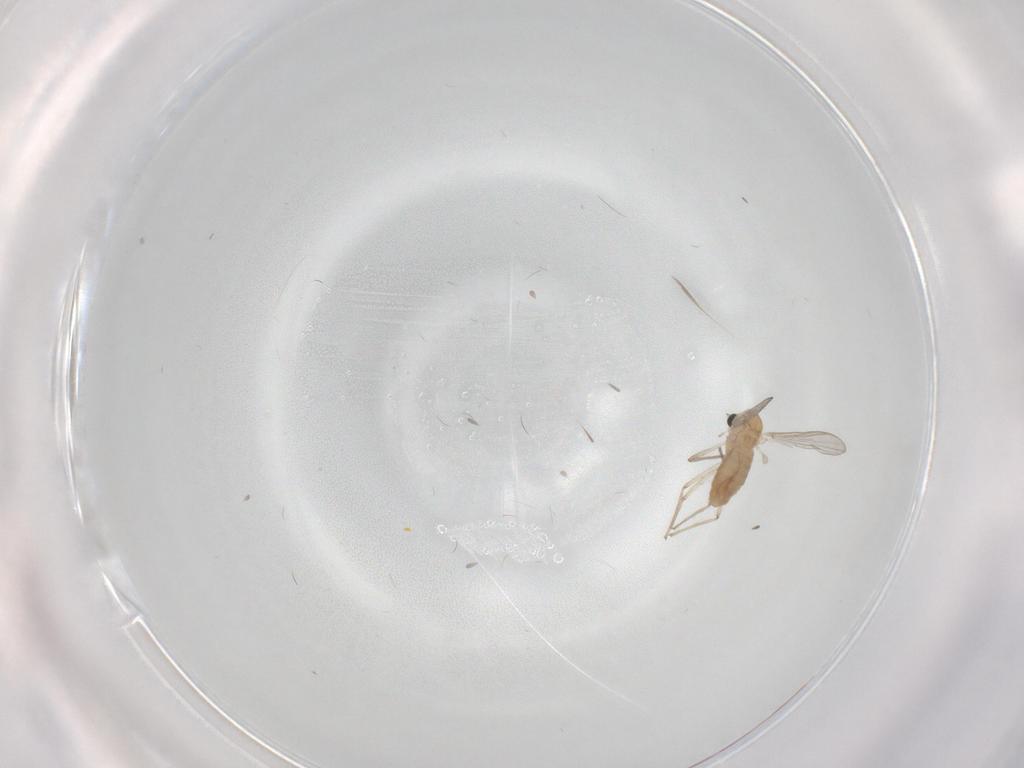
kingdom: Animalia
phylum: Arthropoda
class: Insecta
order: Diptera
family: Chironomidae
